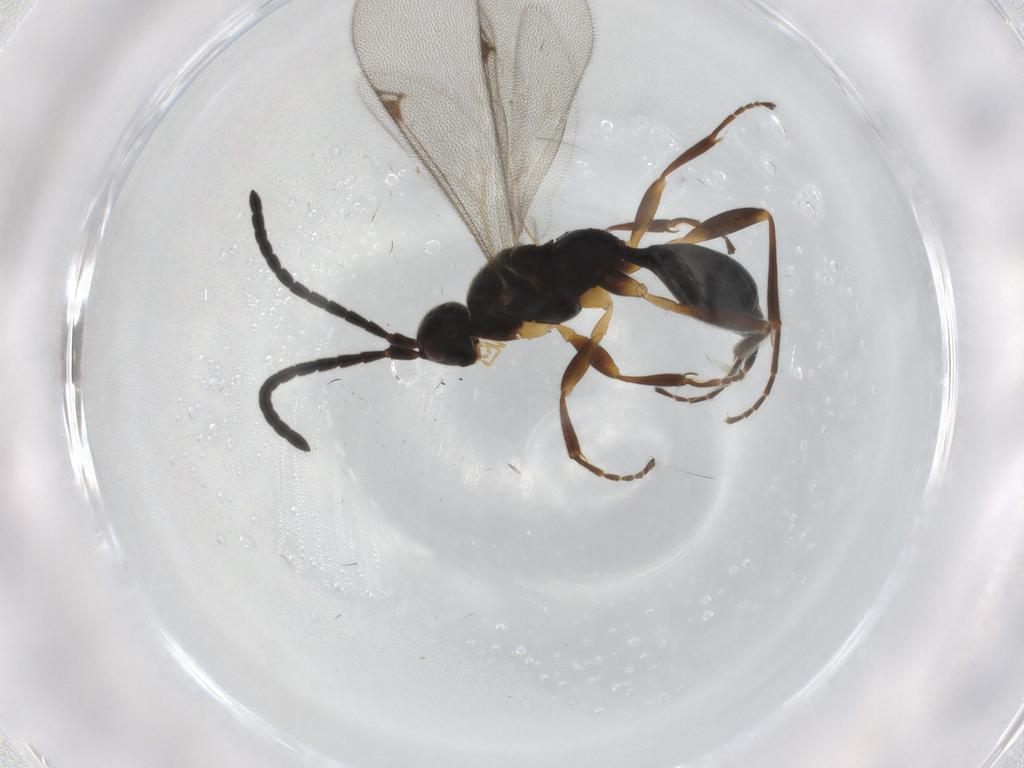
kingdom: Animalia
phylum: Arthropoda
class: Insecta
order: Hymenoptera
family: Proctotrupidae
